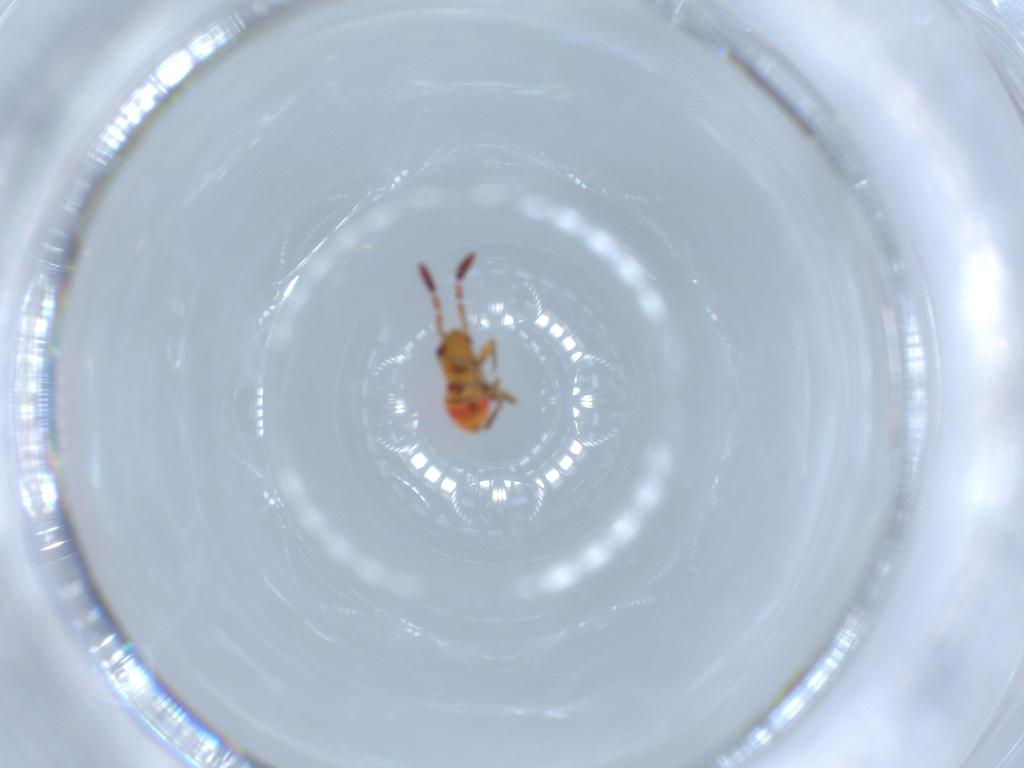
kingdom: Animalia
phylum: Arthropoda
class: Insecta
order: Hemiptera
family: Rhyparochromidae
